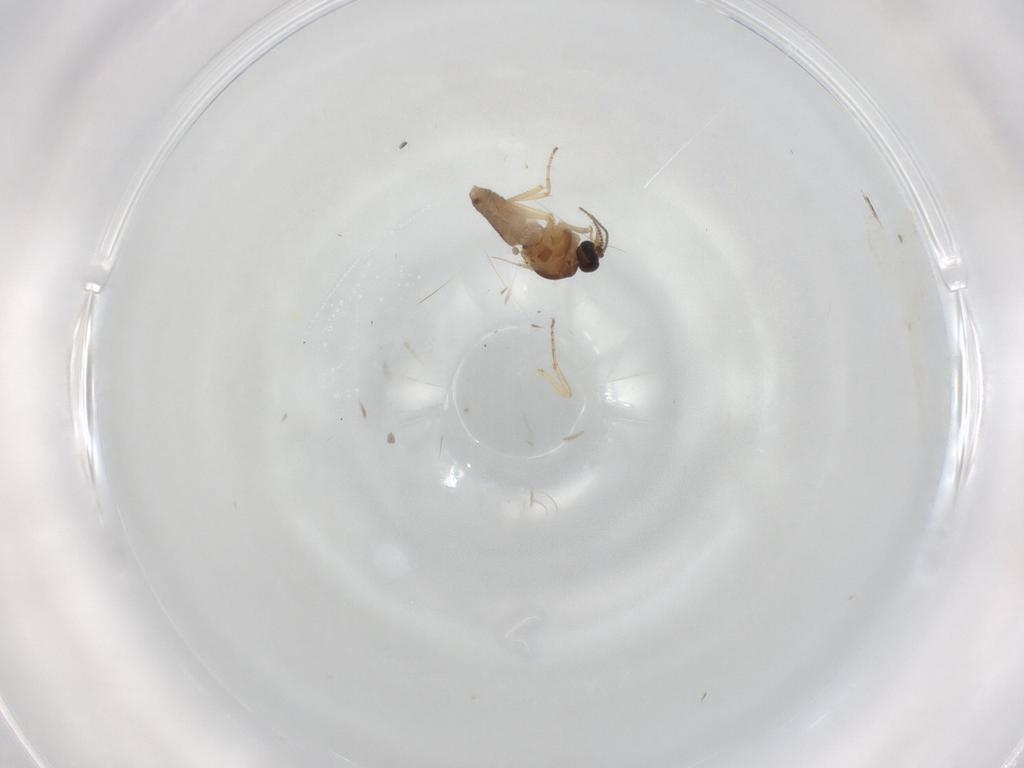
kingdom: Animalia
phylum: Arthropoda
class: Insecta
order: Diptera
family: Ceratopogonidae
